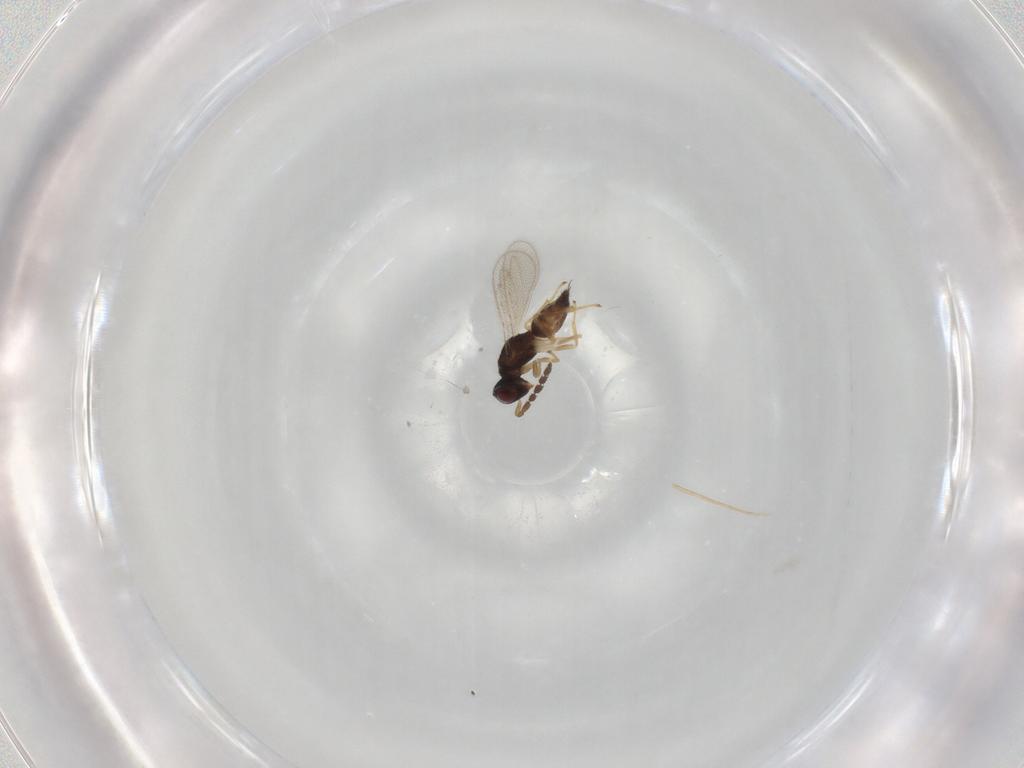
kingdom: Animalia
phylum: Arthropoda
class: Insecta
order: Hymenoptera
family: Eulophidae
